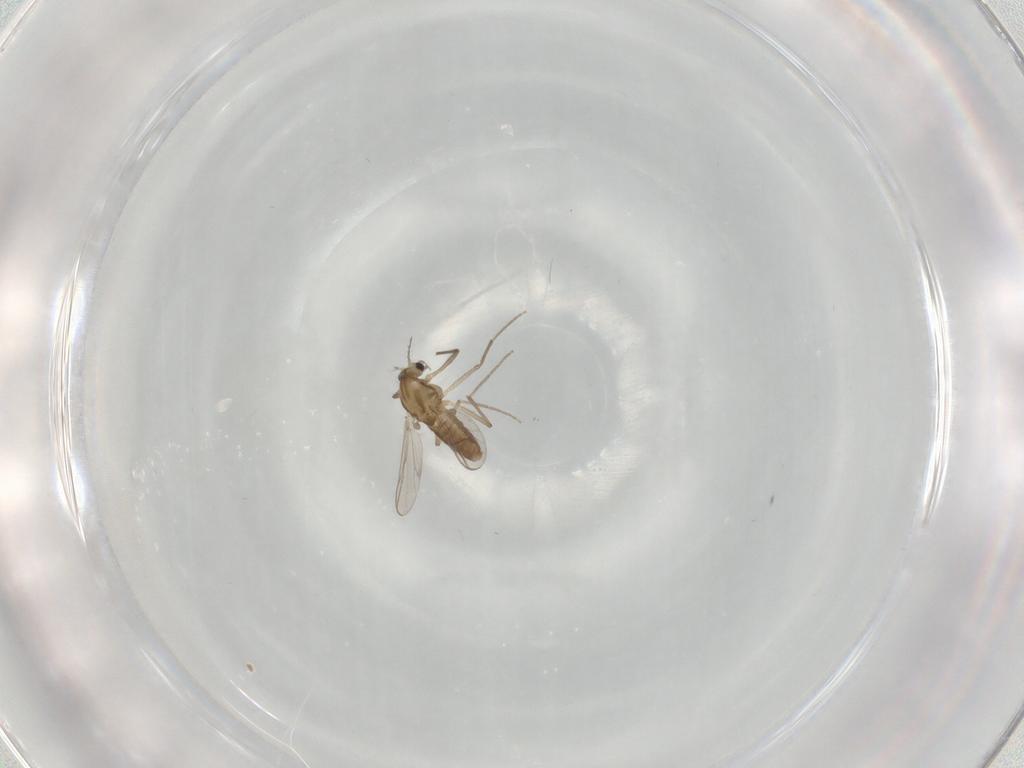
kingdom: Animalia
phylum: Arthropoda
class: Insecta
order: Diptera
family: Chironomidae
